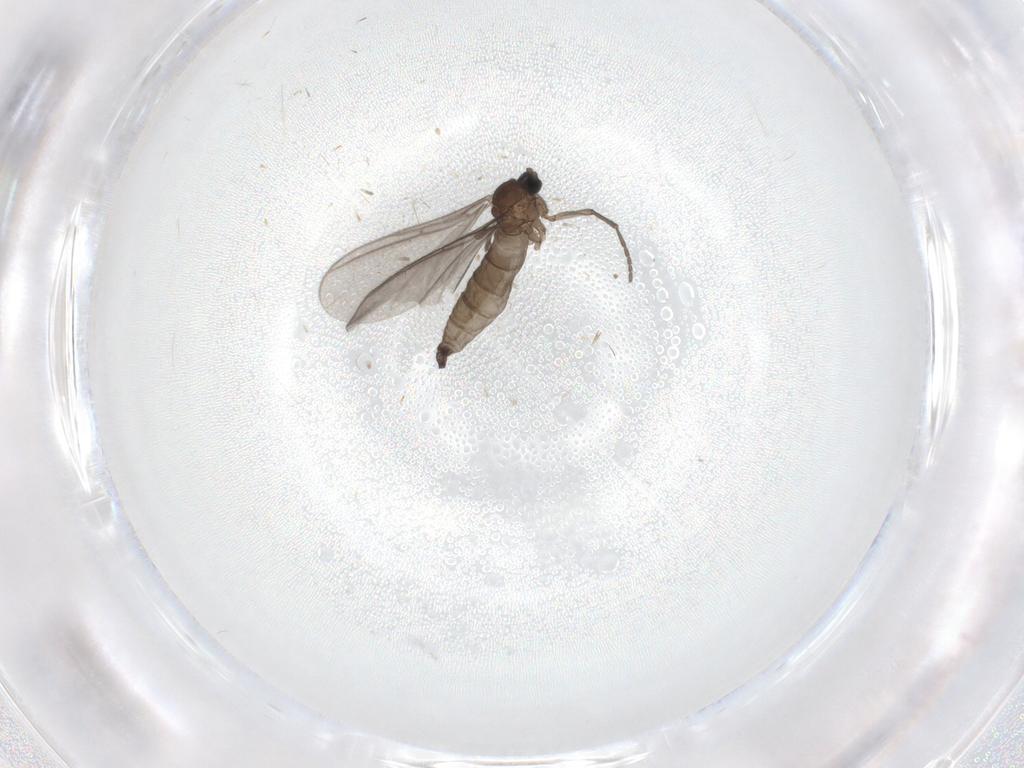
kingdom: Animalia
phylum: Arthropoda
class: Insecta
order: Diptera
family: Sciaridae
